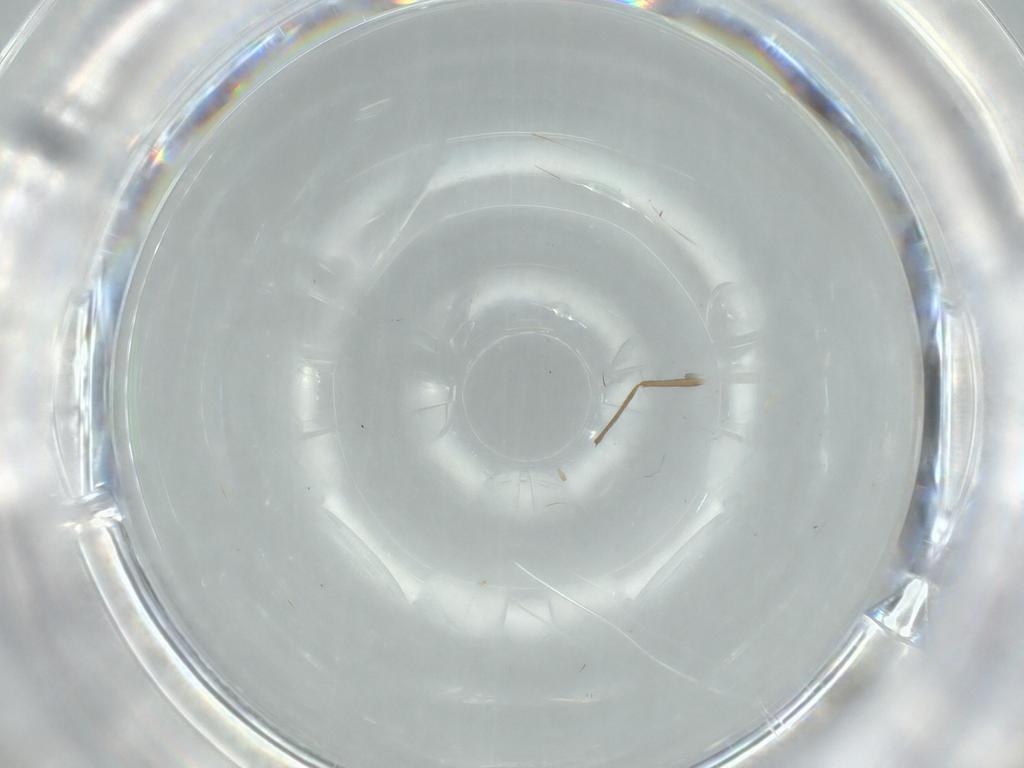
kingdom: Animalia
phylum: Arthropoda
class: Insecta
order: Diptera
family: Cecidomyiidae
